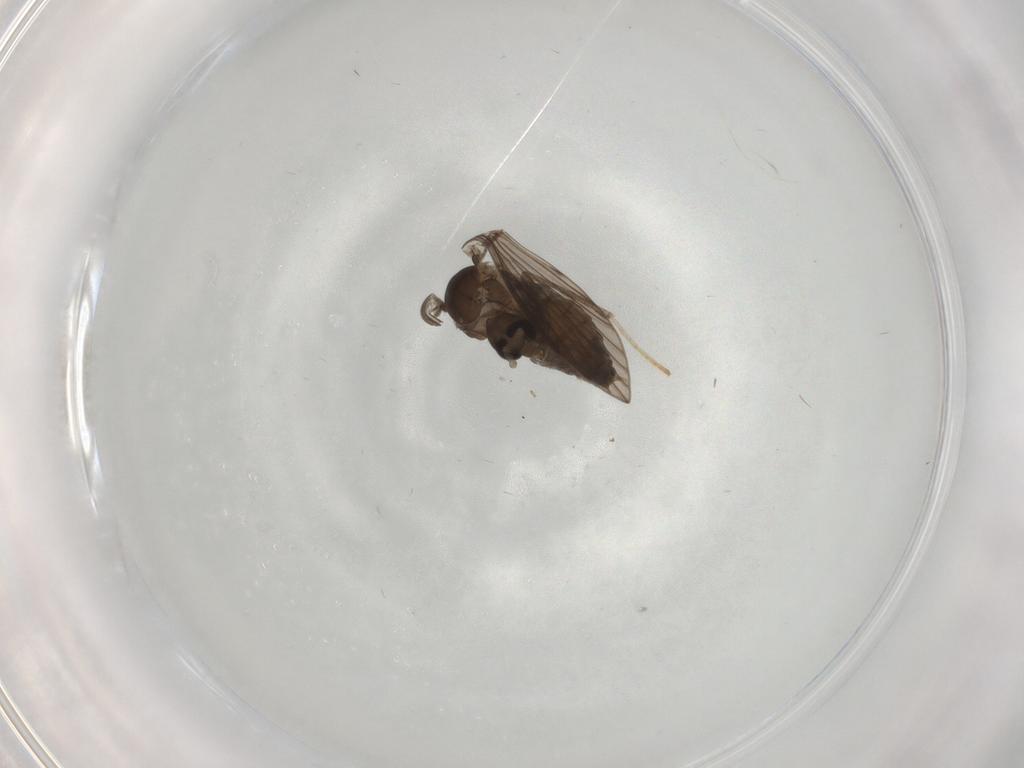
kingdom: Animalia
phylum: Arthropoda
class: Insecta
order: Diptera
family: Psychodidae
